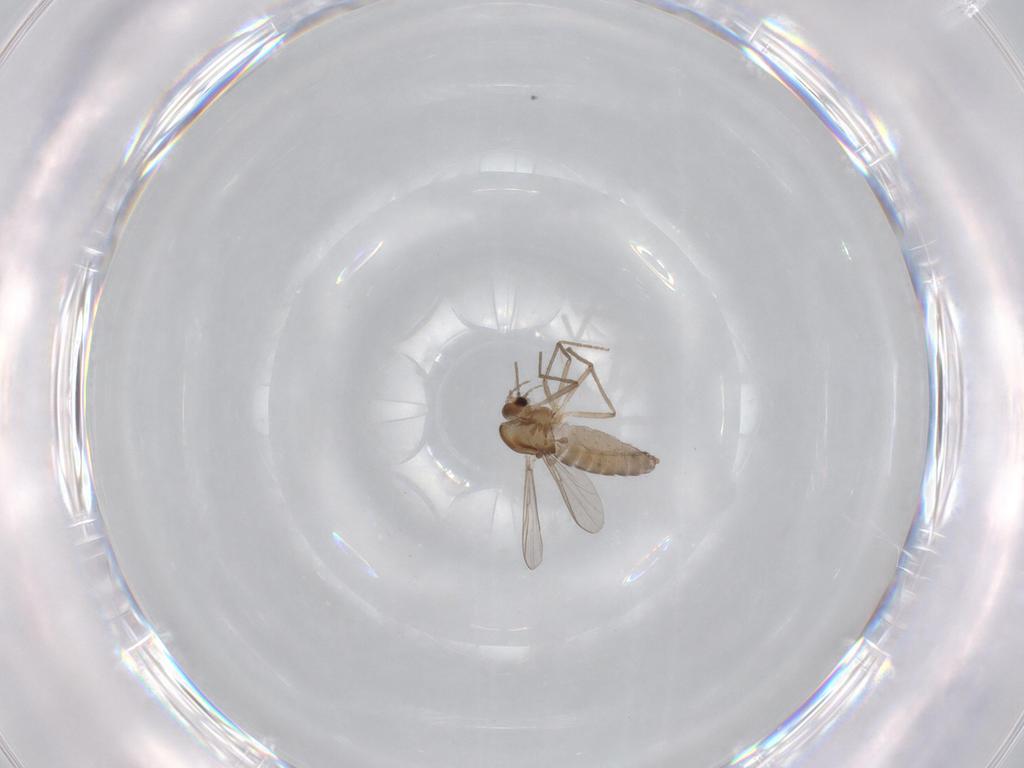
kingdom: Animalia
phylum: Arthropoda
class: Insecta
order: Diptera
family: Chironomidae
